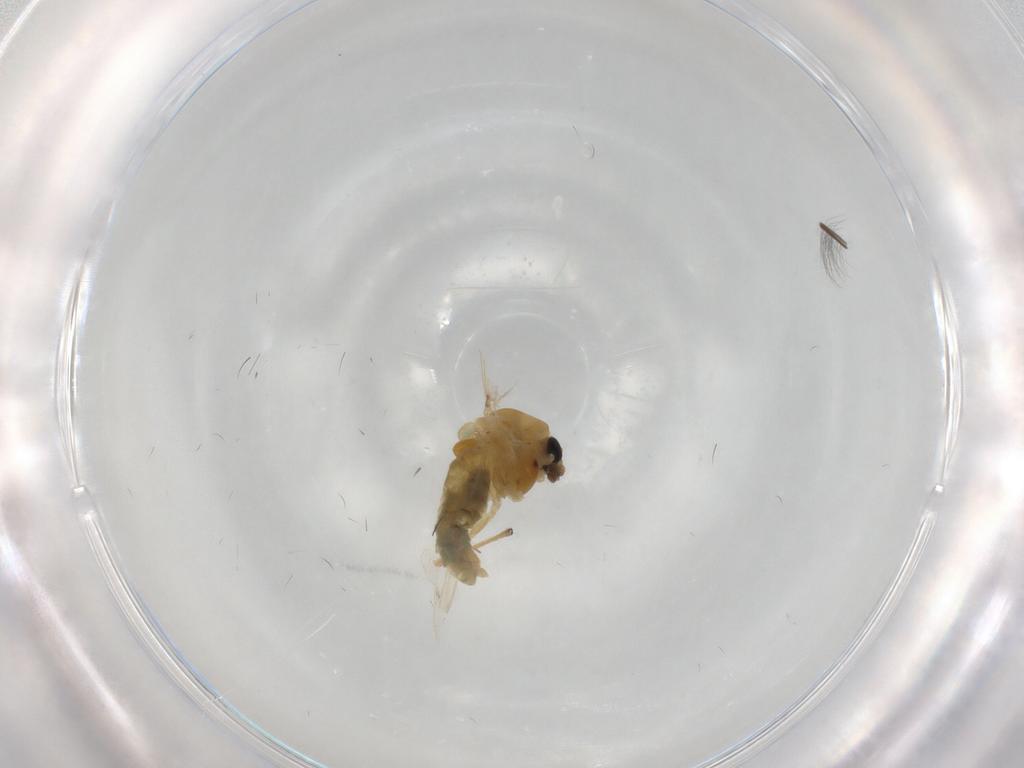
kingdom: Animalia
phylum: Arthropoda
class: Insecta
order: Diptera
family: Chironomidae
